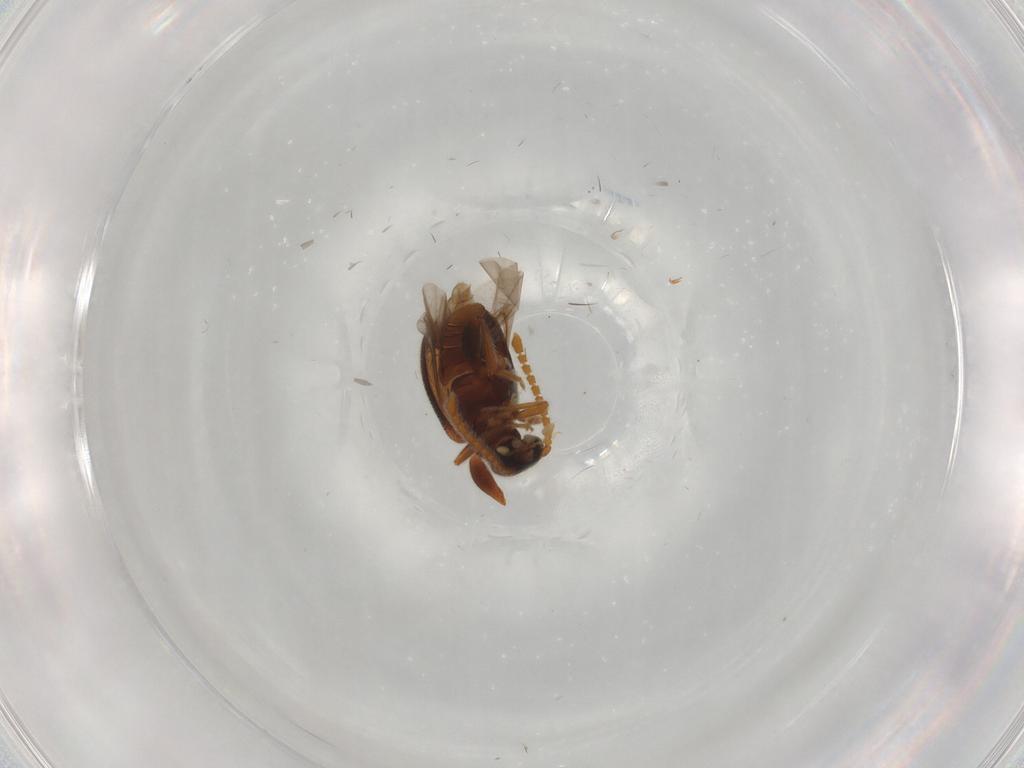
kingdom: Animalia
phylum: Arthropoda
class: Insecta
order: Coleoptera
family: Aderidae
